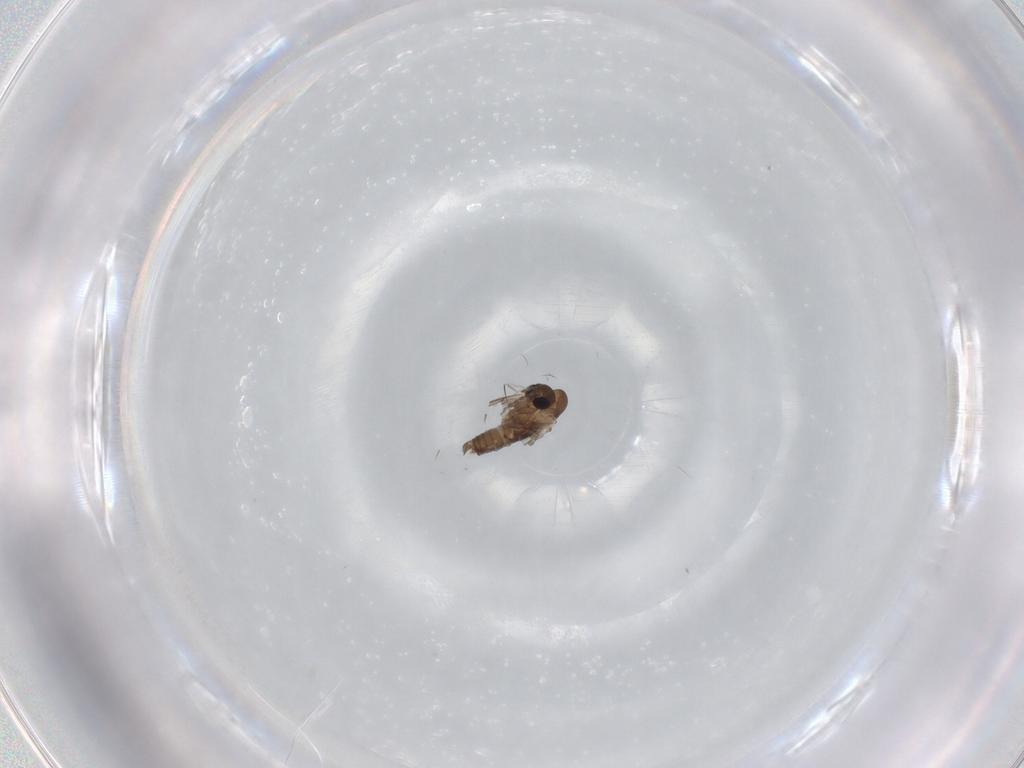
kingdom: Animalia
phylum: Arthropoda
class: Insecta
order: Diptera
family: Psychodidae
